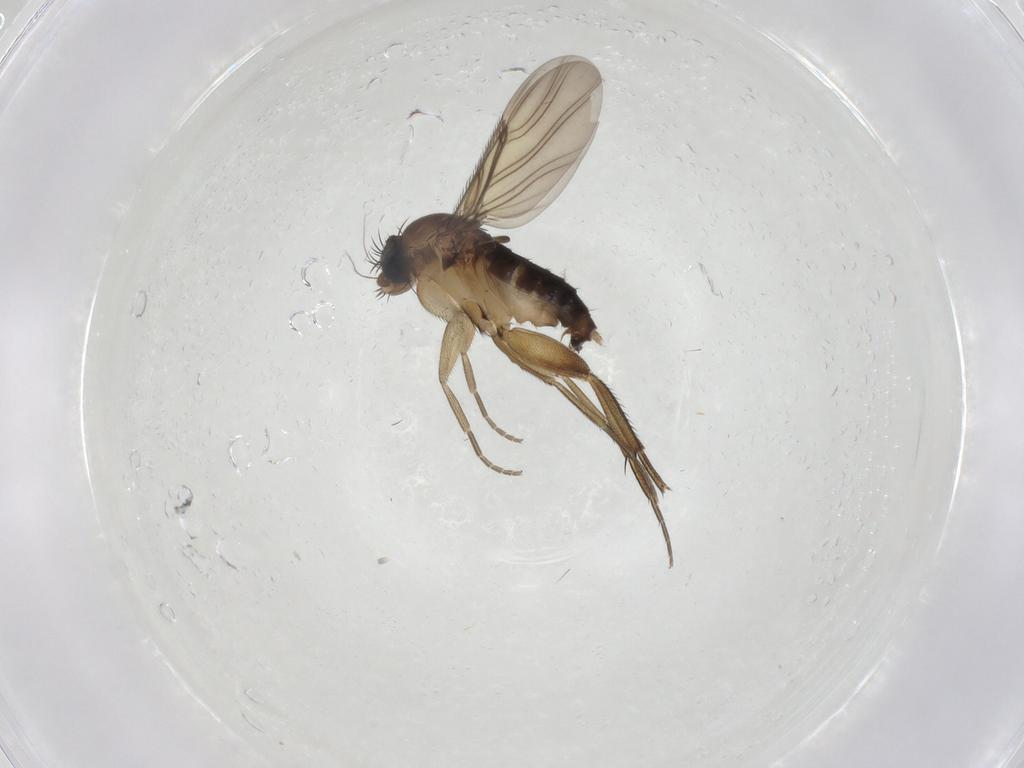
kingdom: Animalia
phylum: Arthropoda
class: Insecta
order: Diptera
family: Phoridae
